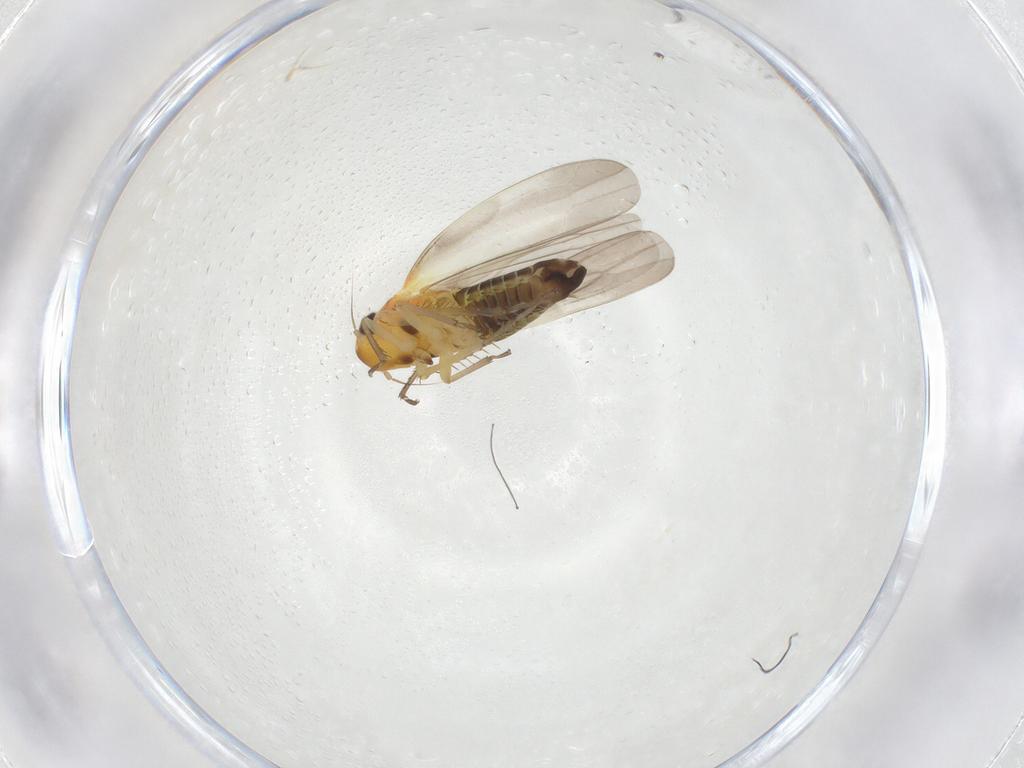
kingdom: Animalia
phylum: Arthropoda
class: Insecta
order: Hemiptera
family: Cicadellidae
